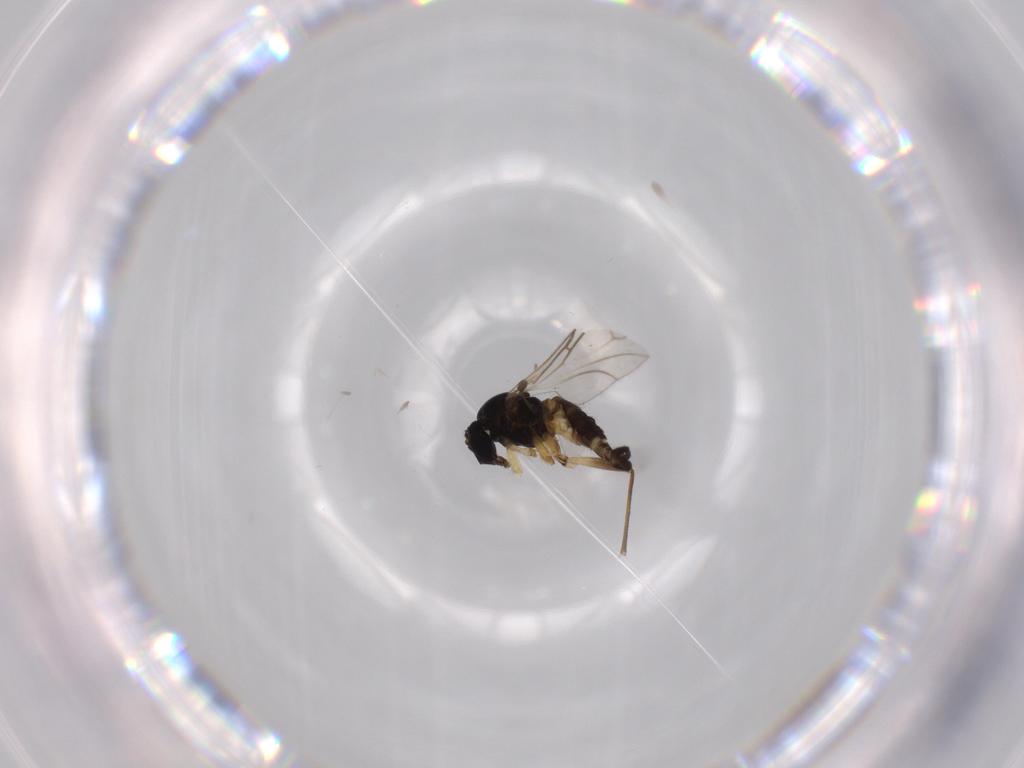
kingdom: Animalia
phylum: Arthropoda
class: Insecta
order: Diptera
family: Sciaridae
